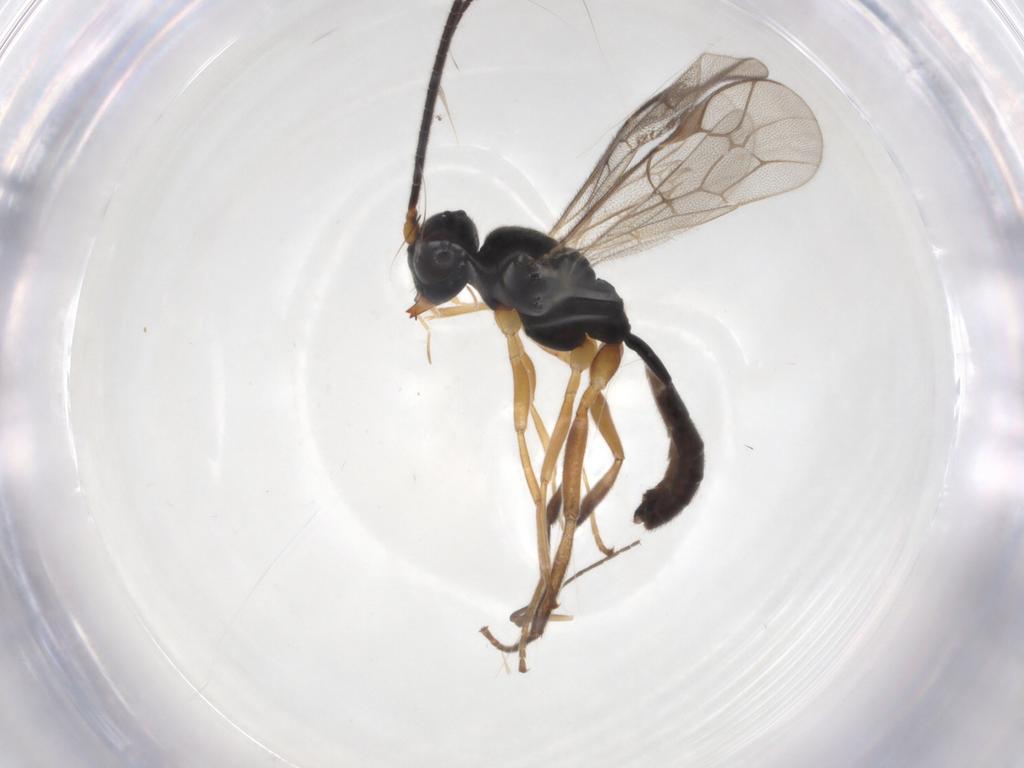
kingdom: Animalia
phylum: Arthropoda
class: Insecta
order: Hymenoptera
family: Ichneumonidae
